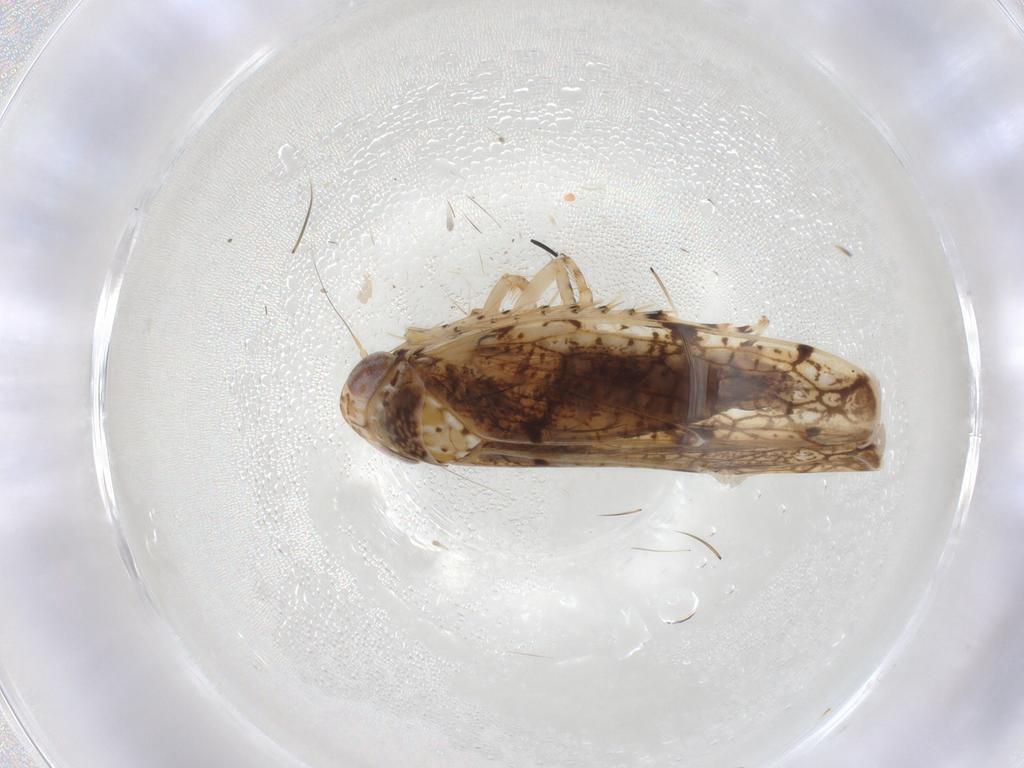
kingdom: Animalia
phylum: Arthropoda
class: Insecta
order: Hemiptera
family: Cicadellidae
